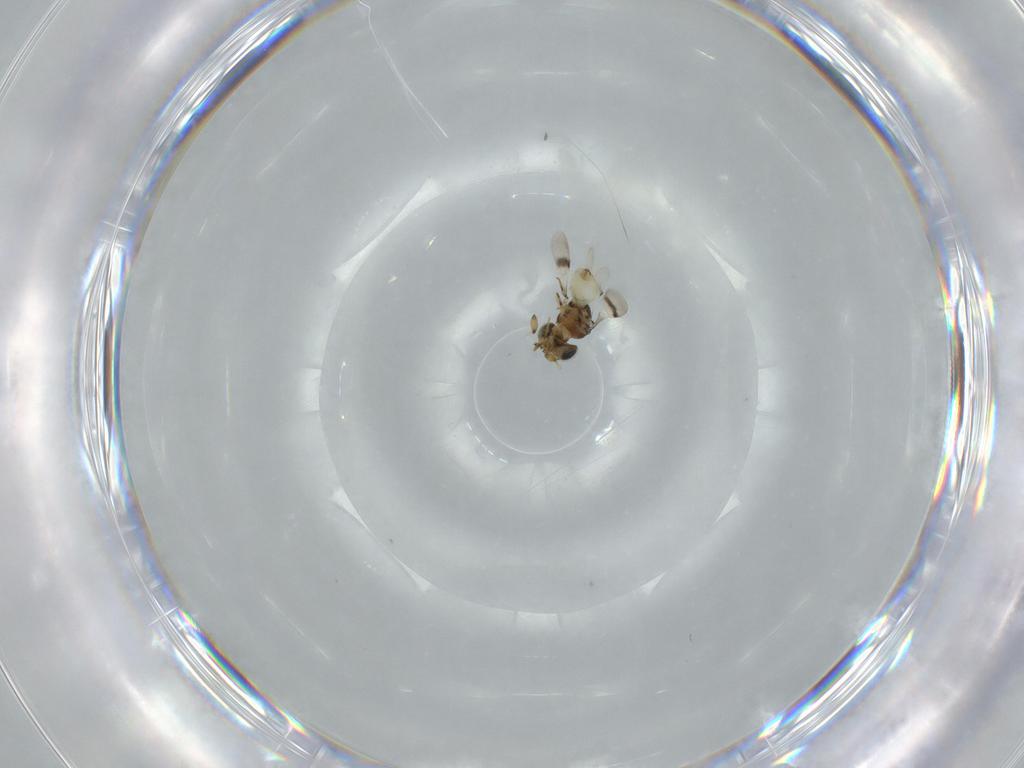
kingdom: Animalia
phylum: Arthropoda
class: Insecta
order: Hymenoptera
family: Scelionidae
